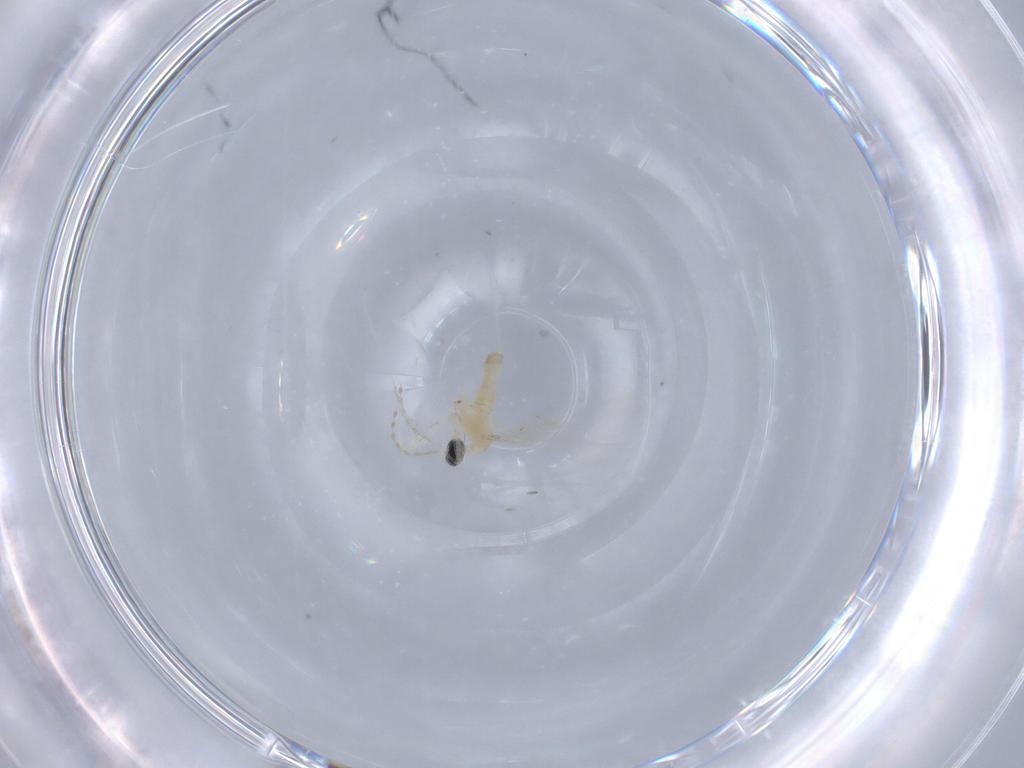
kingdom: Animalia
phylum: Arthropoda
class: Insecta
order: Diptera
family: Cecidomyiidae
